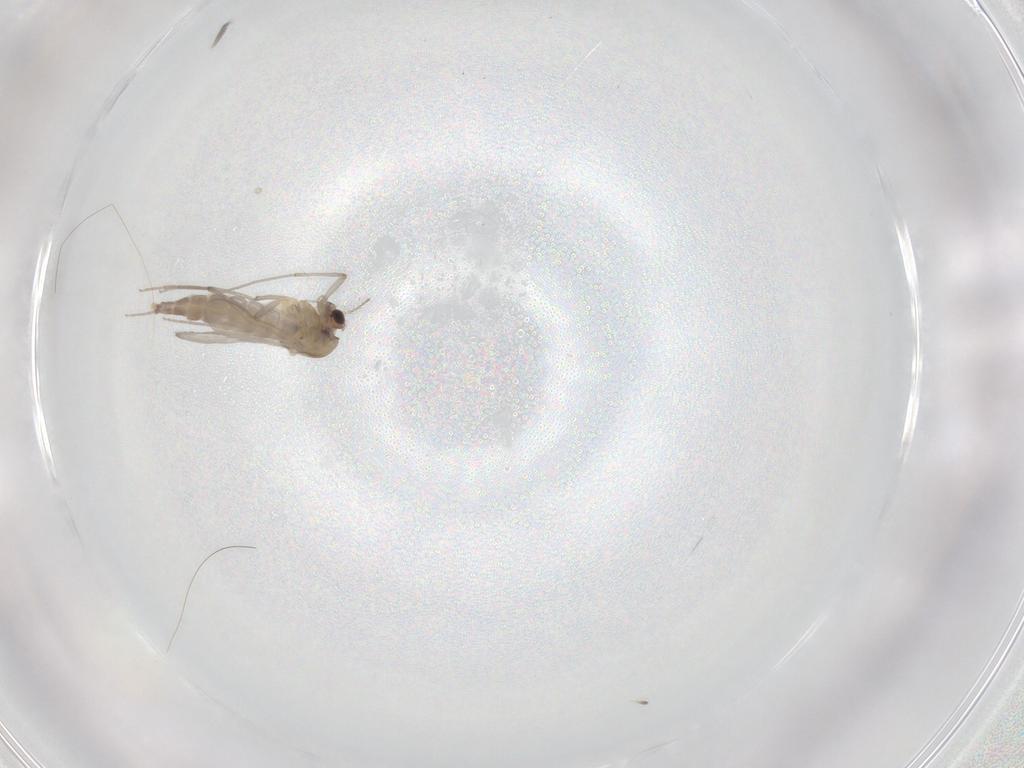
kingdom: Animalia
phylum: Arthropoda
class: Insecta
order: Diptera
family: Chironomidae
